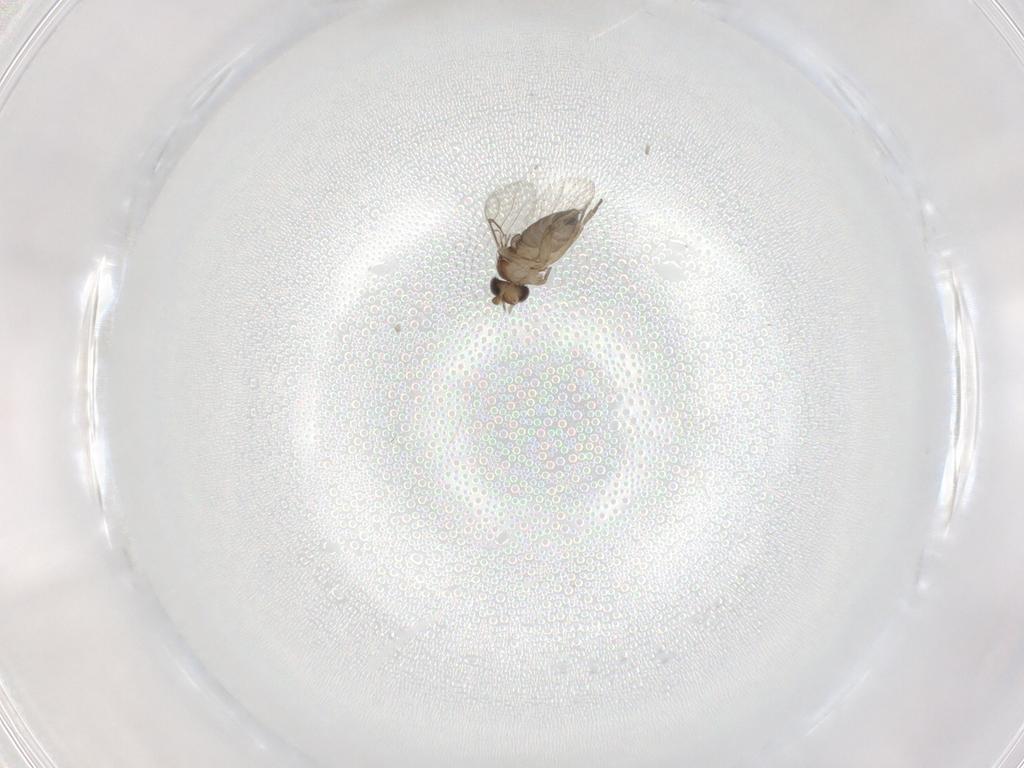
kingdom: Animalia
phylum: Arthropoda
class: Insecta
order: Diptera
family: Phoridae
